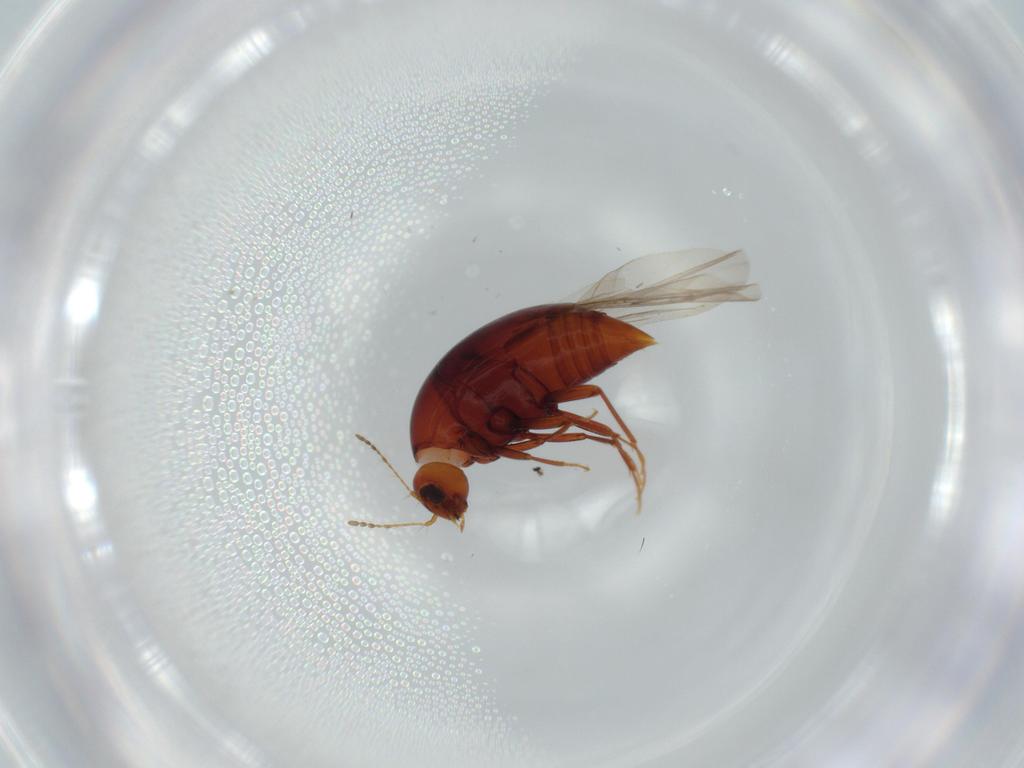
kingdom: Animalia
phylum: Arthropoda
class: Insecta
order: Coleoptera
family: Staphylinidae
